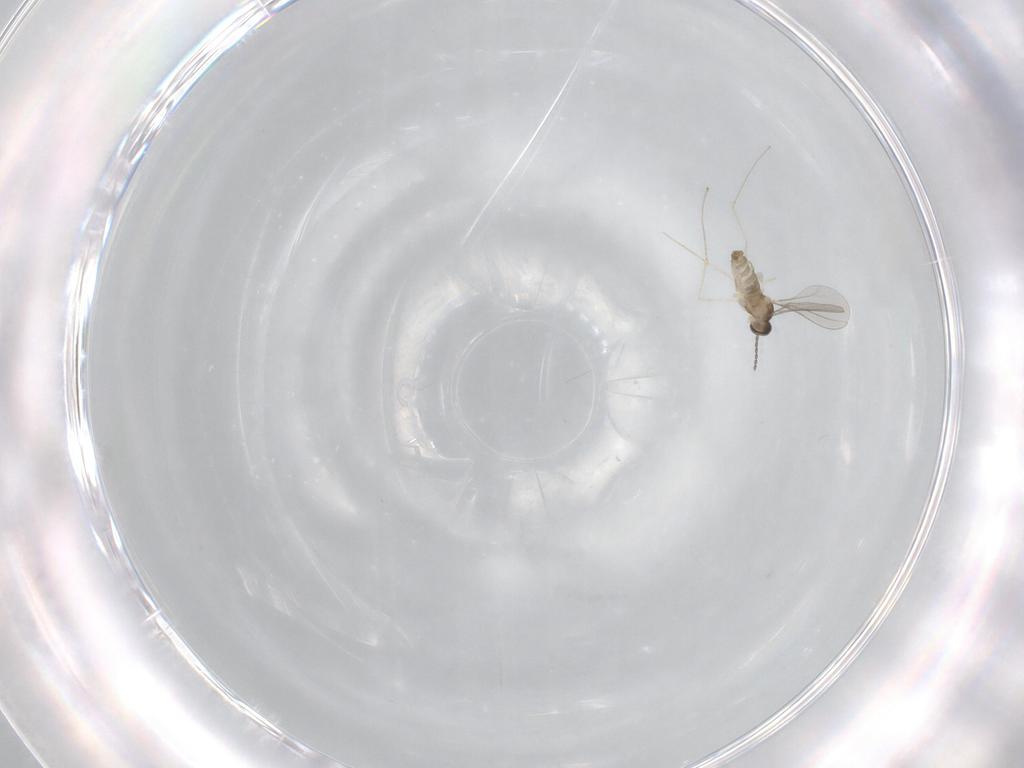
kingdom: Animalia
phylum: Arthropoda
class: Insecta
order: Diptera
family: Sciaridae
